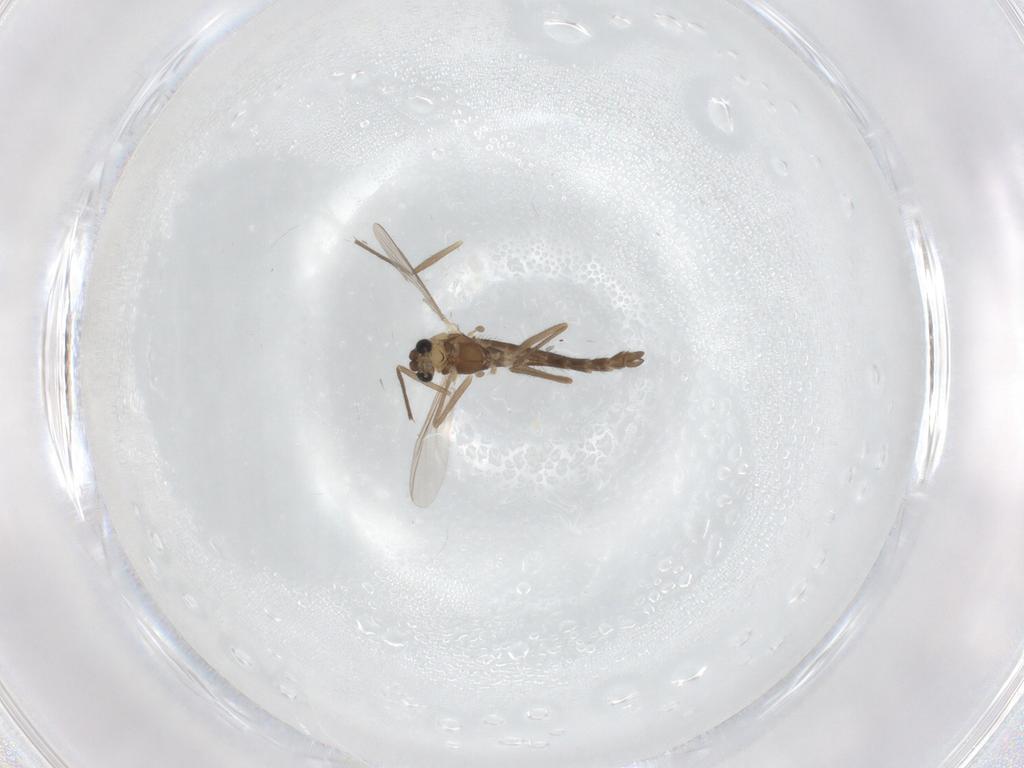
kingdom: Animalia
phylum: Arthropoda
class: Insecta
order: Diptera
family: Chironomidae
